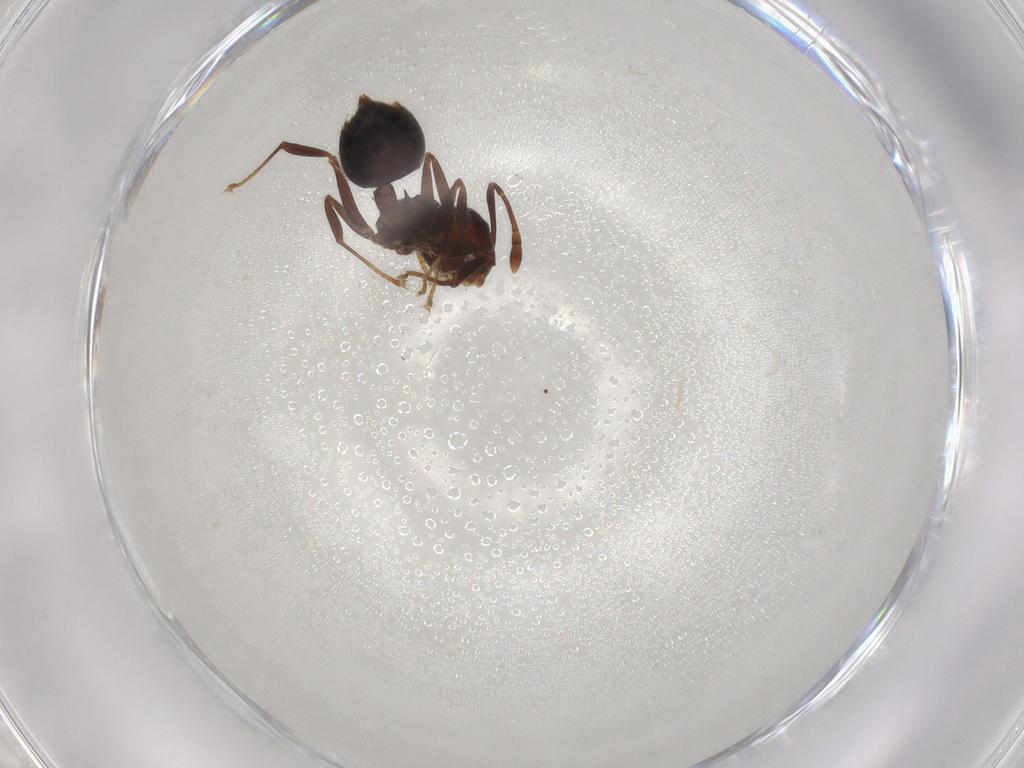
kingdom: Animalia
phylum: Arthropoda
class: Insecta
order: Hymenoptera
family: Formicidae
